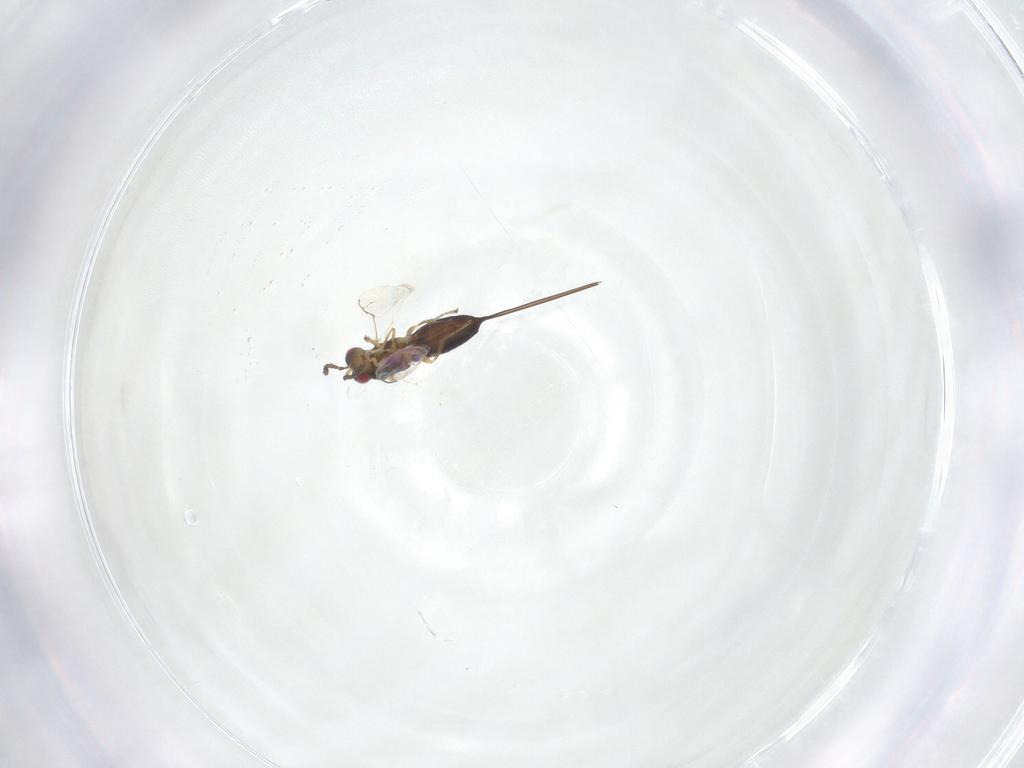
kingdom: Animalia
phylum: Arthropoda
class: Insecta
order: Hymenoptera
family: Pteromalidae
